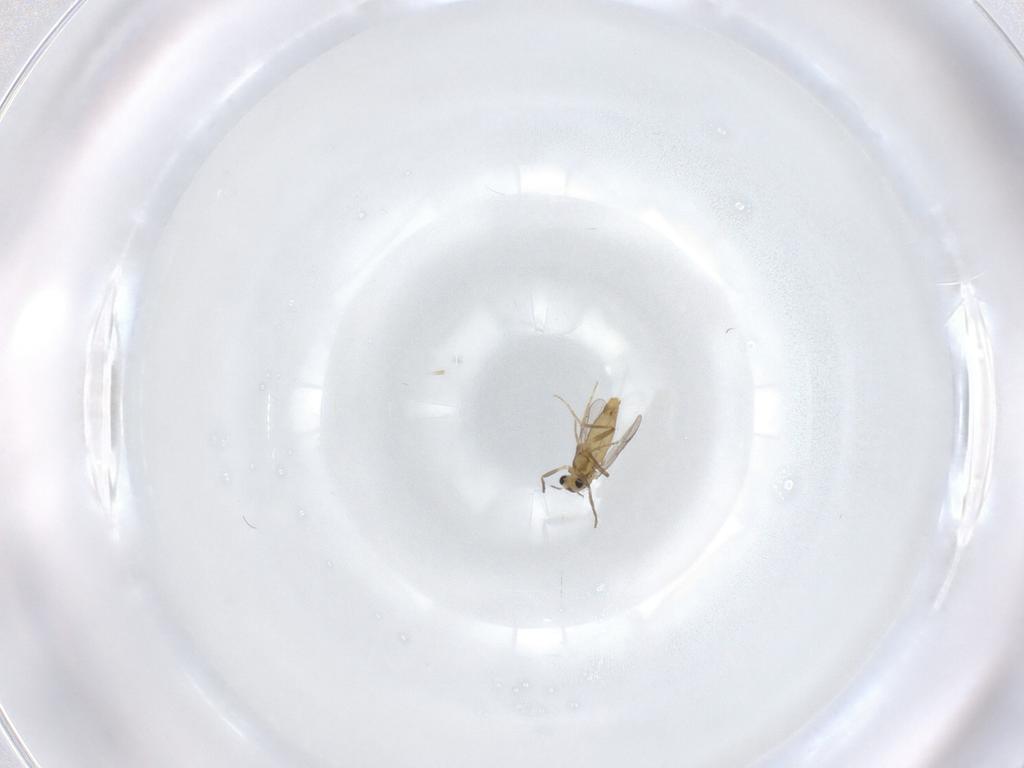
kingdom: Animalia
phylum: Arthropoda
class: Insecta
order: Diptera
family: Chironomidae
